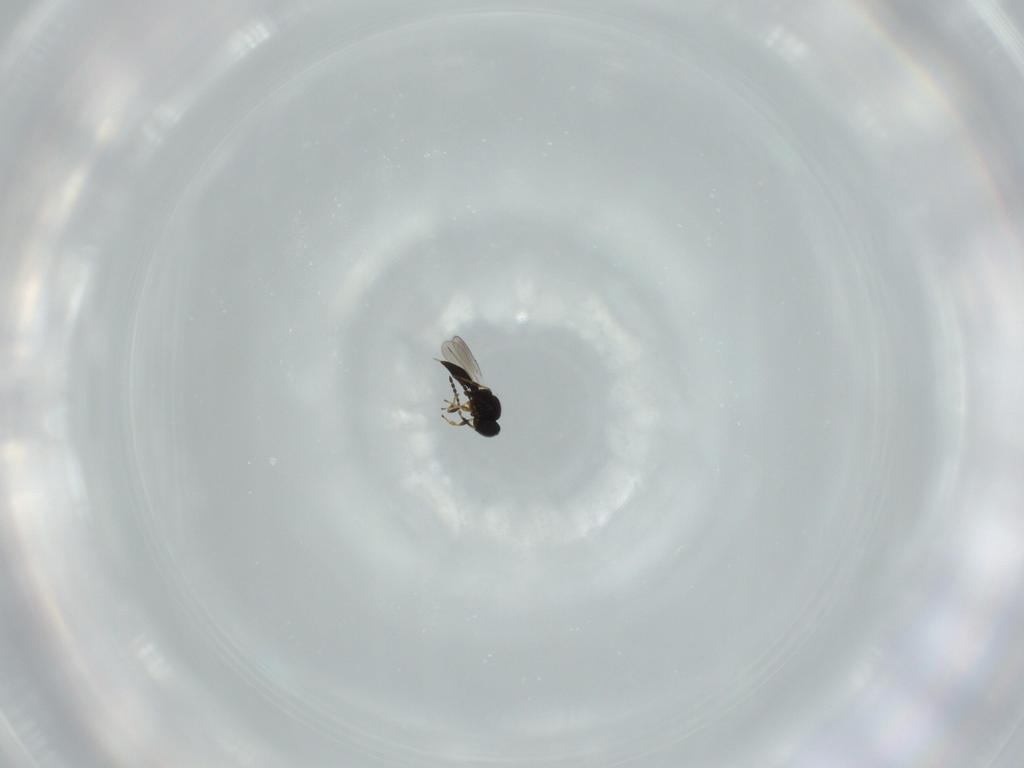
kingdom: Animalia
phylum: Arthropoda
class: Insecta
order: Hymenoptera
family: Platygastridae
